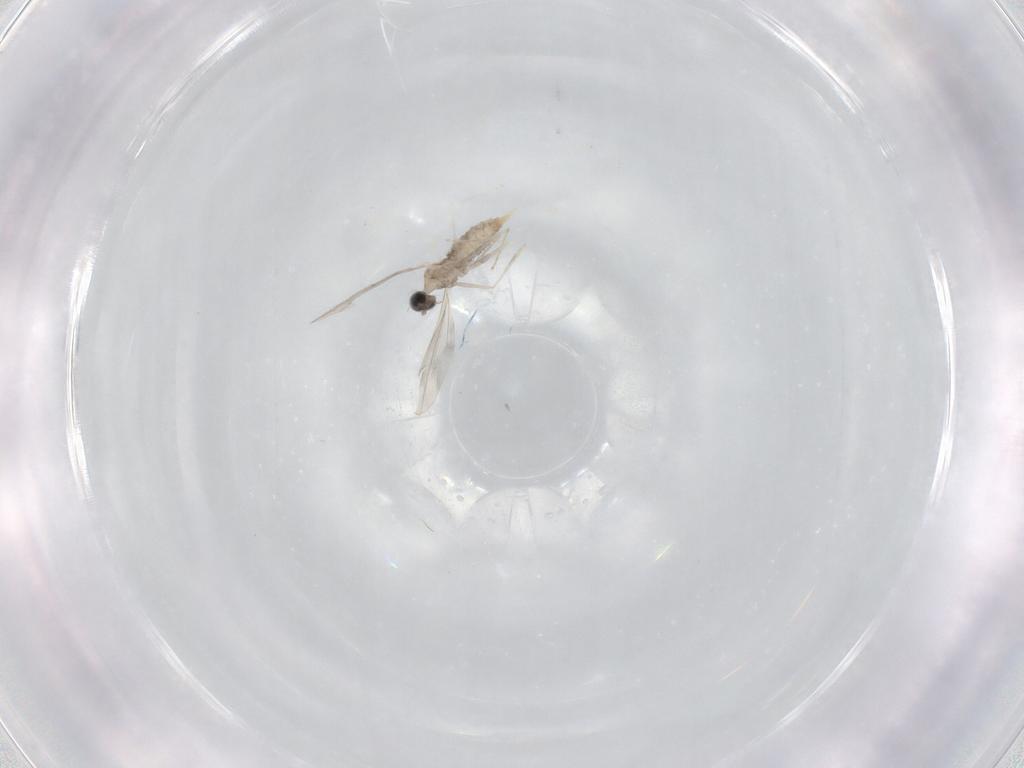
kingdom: Animalia
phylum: Arthropoda
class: Insecta
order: Diptera
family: Cecidomyiidae
